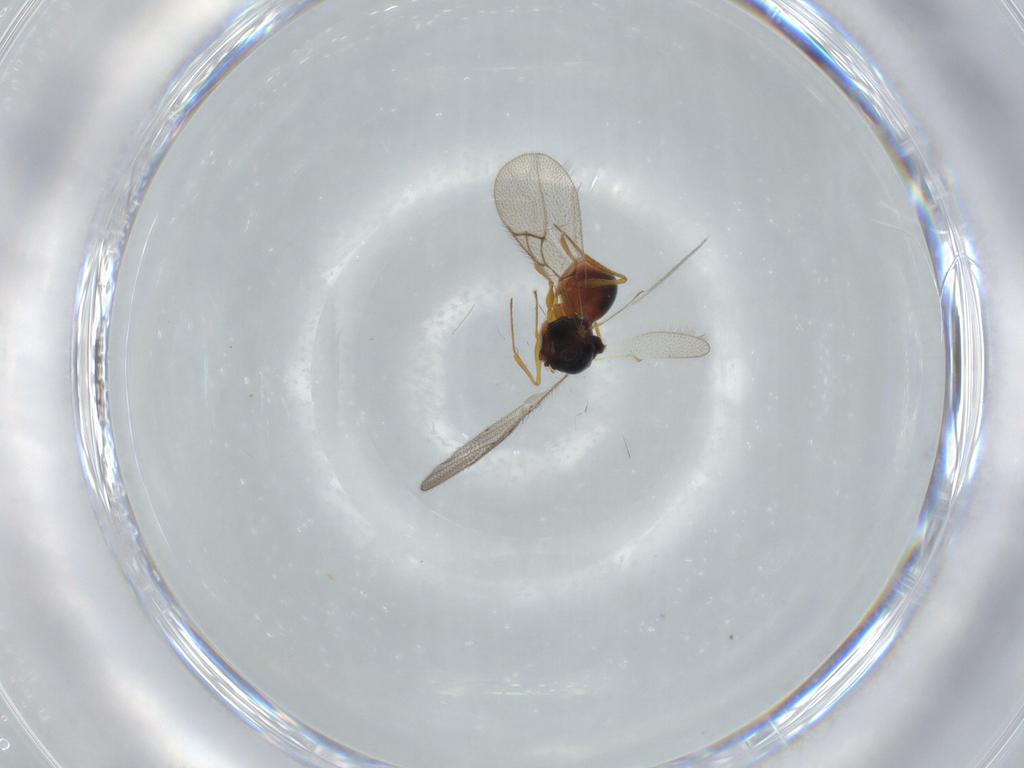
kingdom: Animalia
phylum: Arthropoda
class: Insecta
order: Hymenoptera
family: Figitidae
